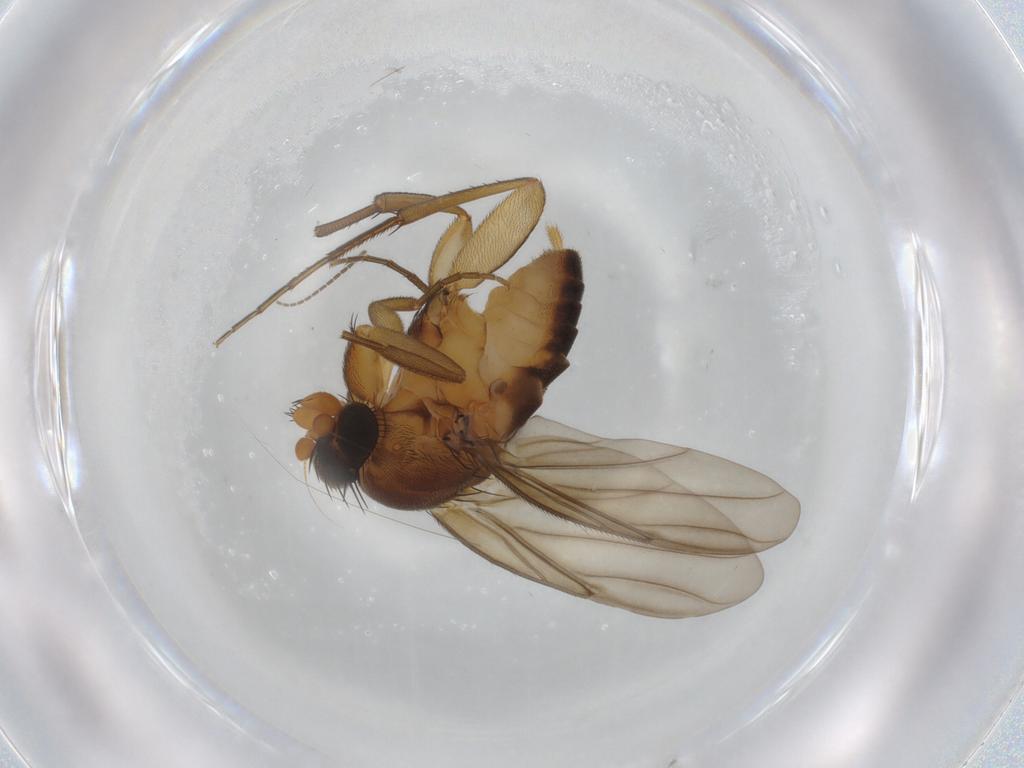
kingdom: Animalia
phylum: Arthropoda
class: Insecta
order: Diptera
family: Phoridae
